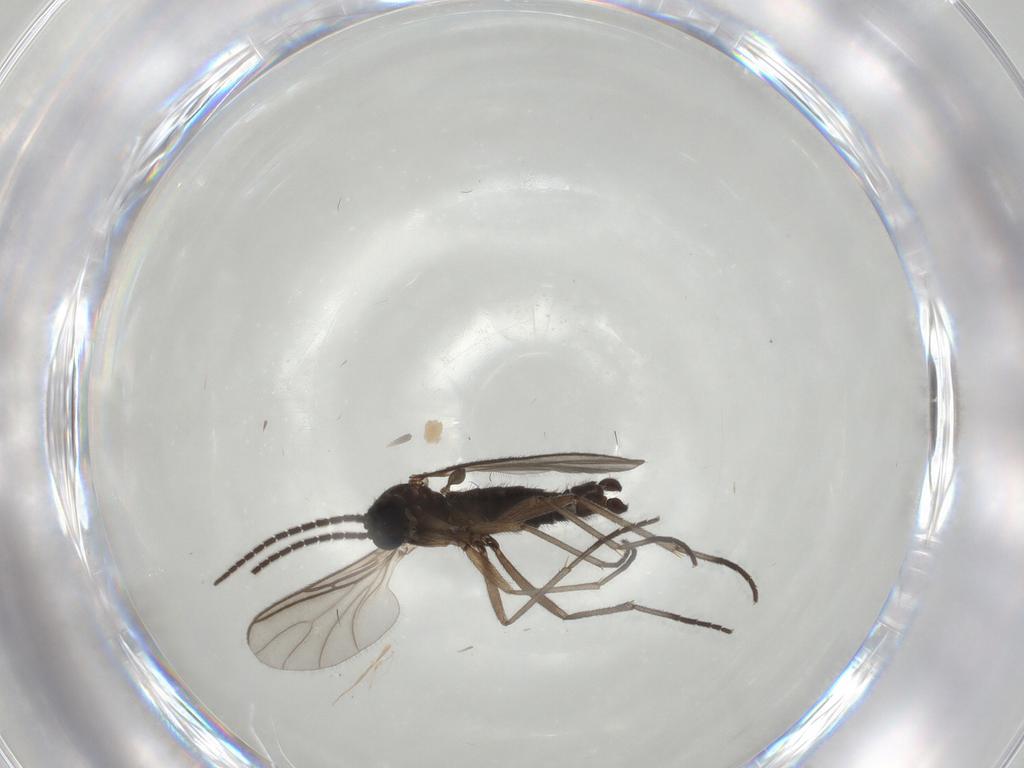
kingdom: Animalia
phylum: Arthropoda
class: Insecta
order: Diptera
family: Sciaridae
